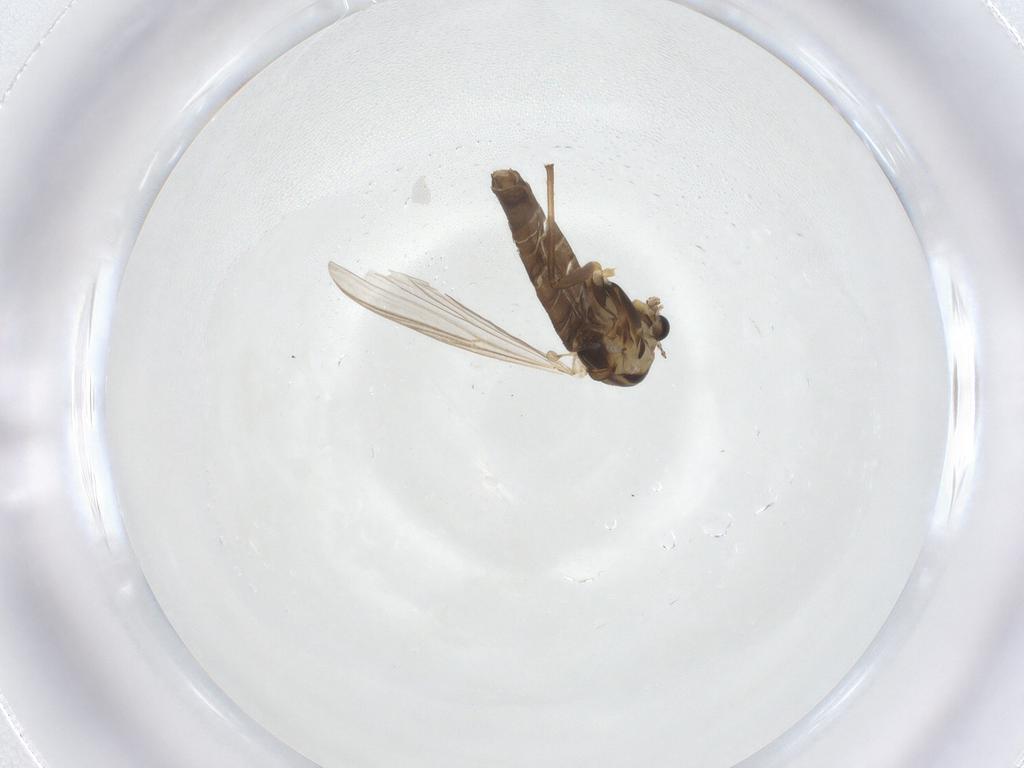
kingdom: Animalia
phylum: Arthropoda
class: Insecta
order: Diptera
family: Chironomidae
